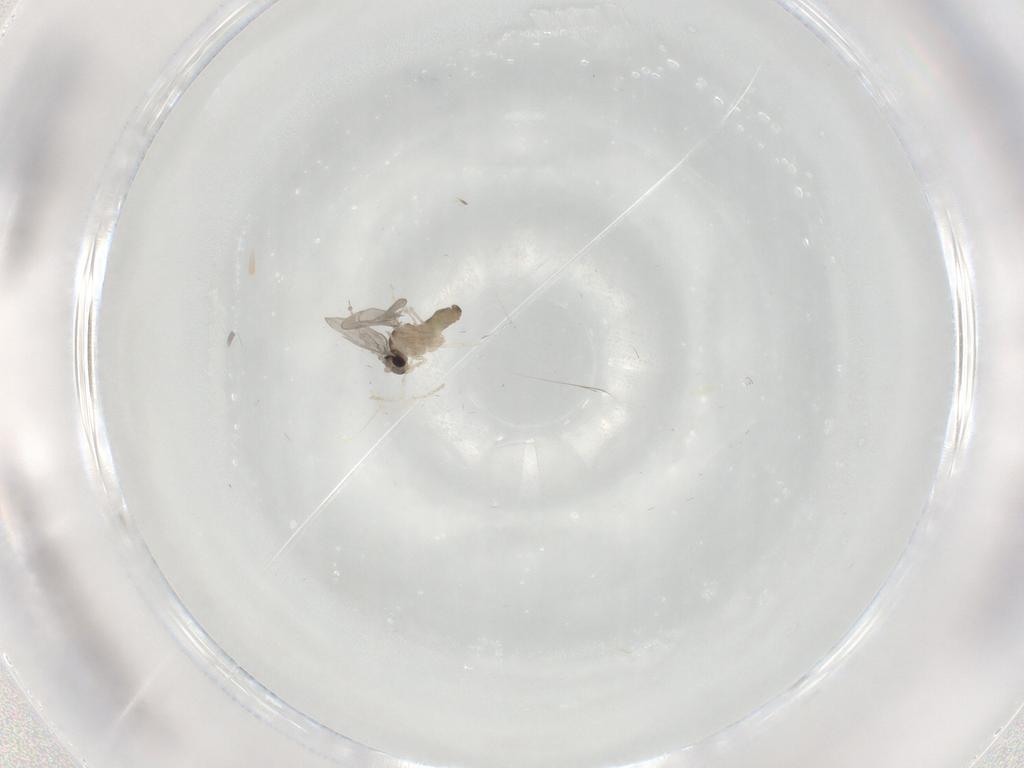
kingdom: Animalia
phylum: Arthropoda
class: Insecta
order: Diptera
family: Cecidomyiidae
